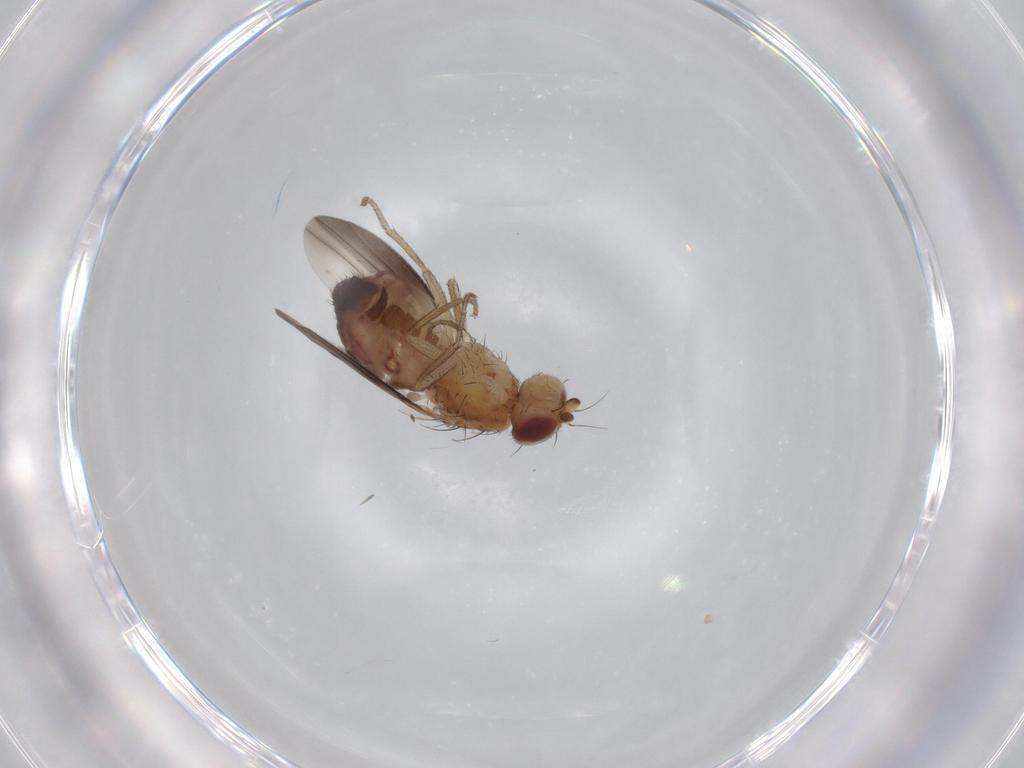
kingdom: Animalia
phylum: Arthropoda
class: Insecta
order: Diptera
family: Heleomyzidae
